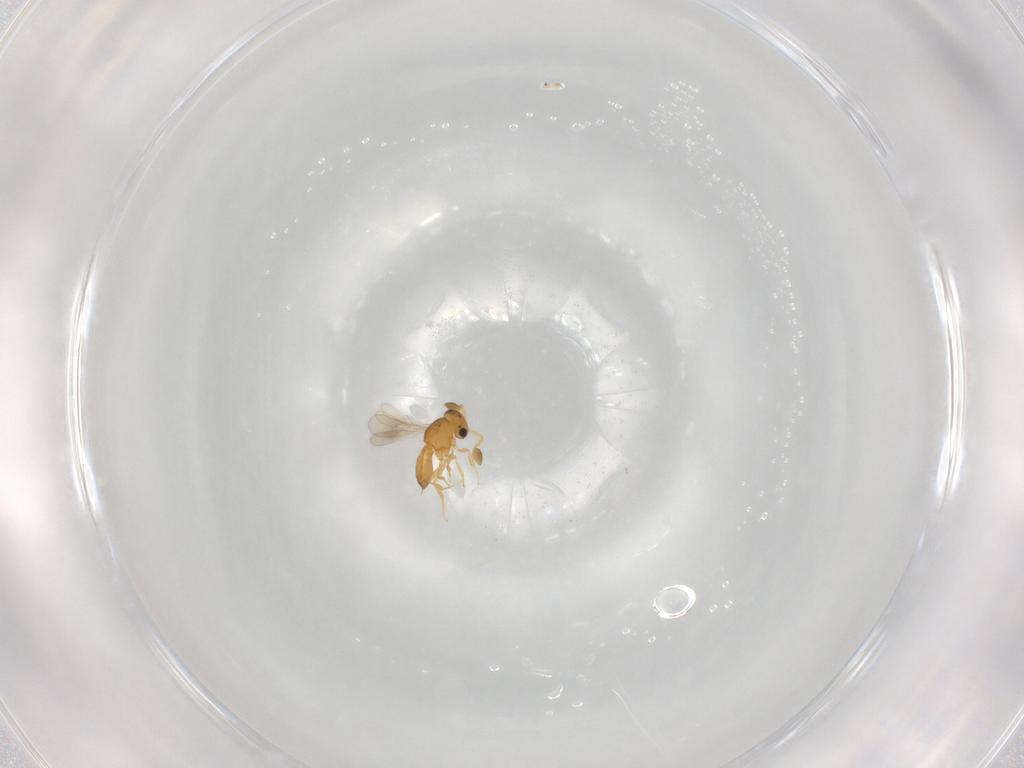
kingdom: Animalia
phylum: Arthropoda
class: Insecta
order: Hymenoptera
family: Scelionidae
